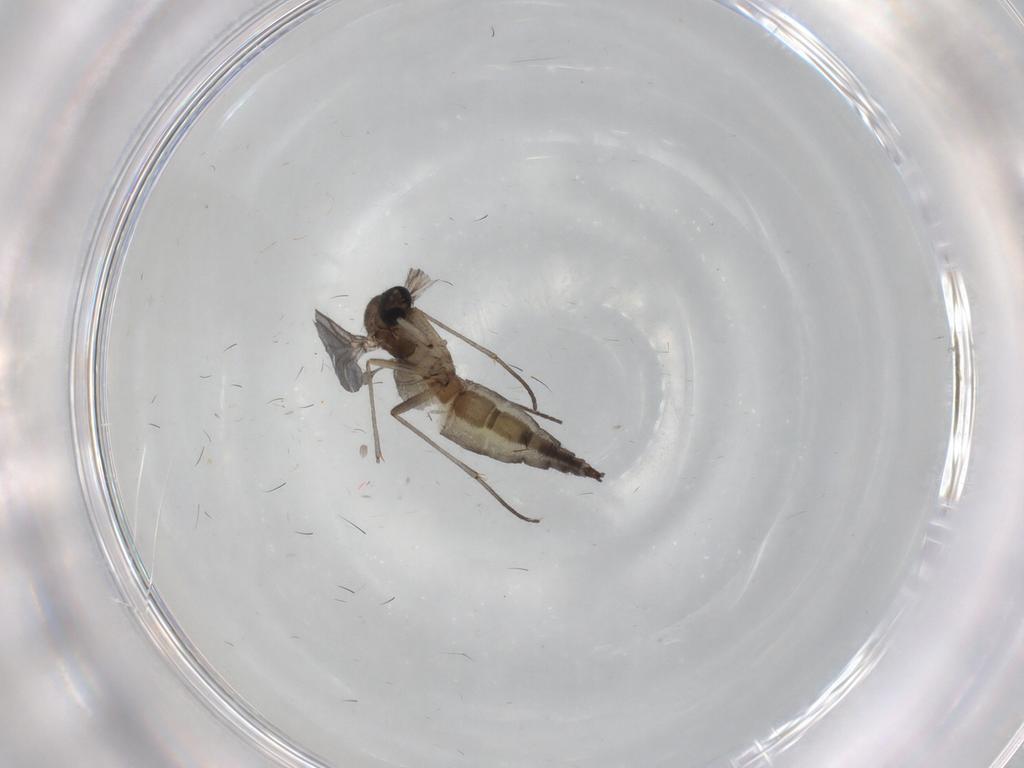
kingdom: Animalia
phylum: Arthropoda
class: Insecta
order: Diptera
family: Sciaridae
